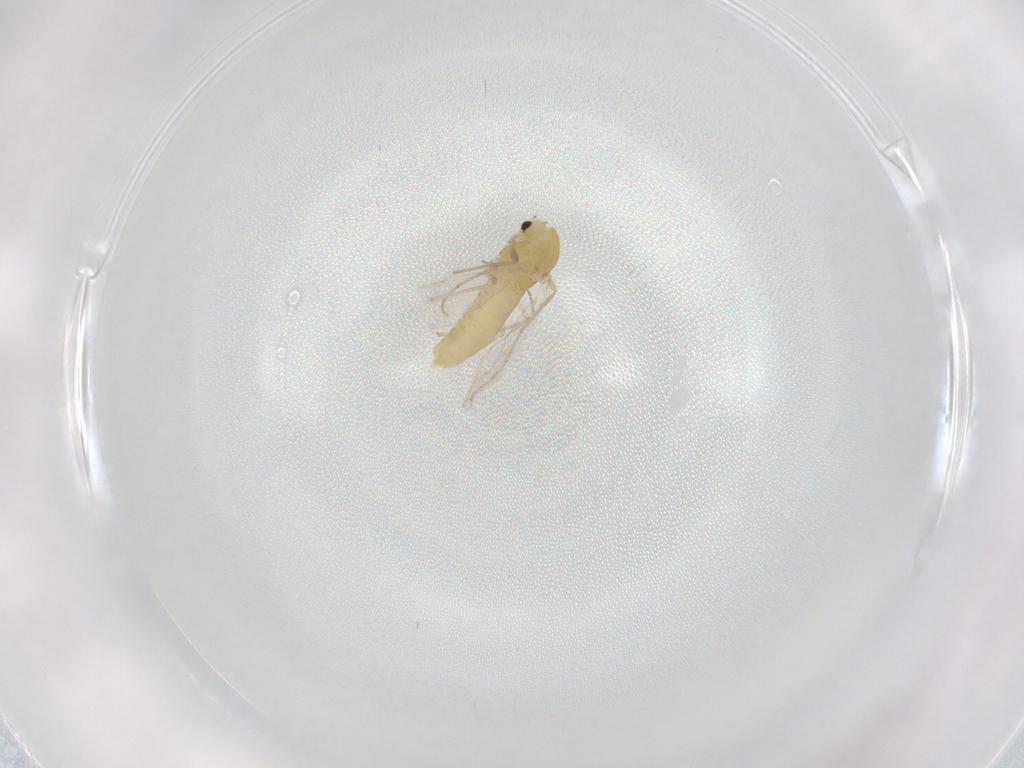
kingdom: Animalia
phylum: Arthropoda
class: Insecta
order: Diptera
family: Chironomidae
